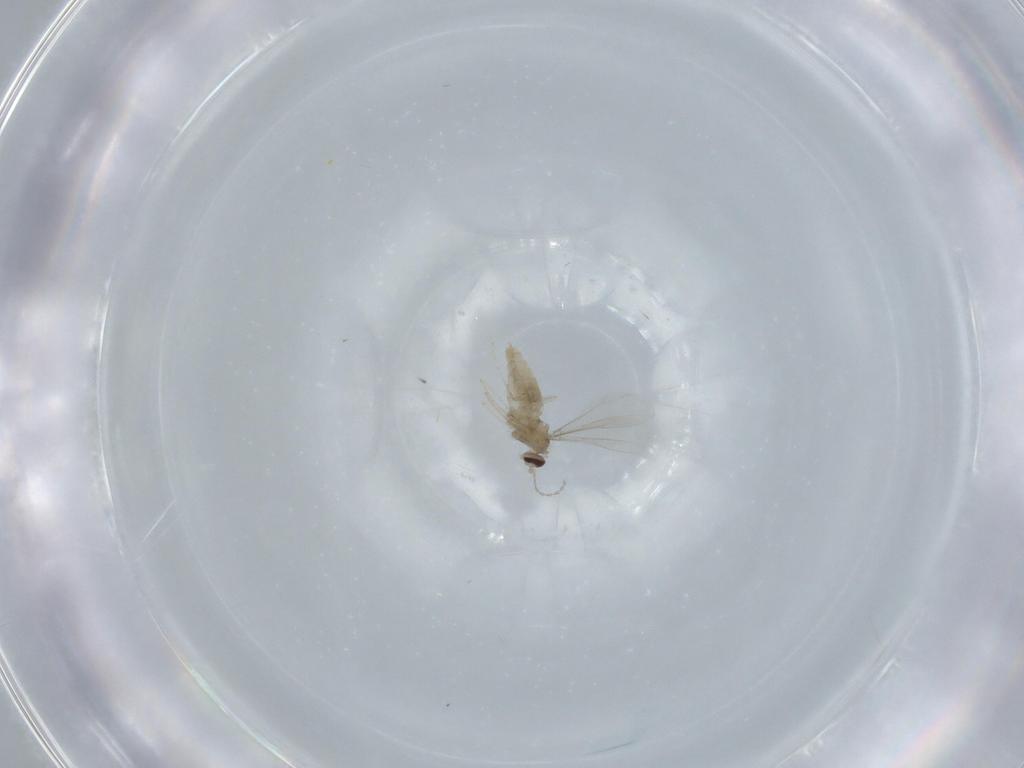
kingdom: Animalia
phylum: Arthropoda
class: Insecta
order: Diptera
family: Cecidomyiidae
